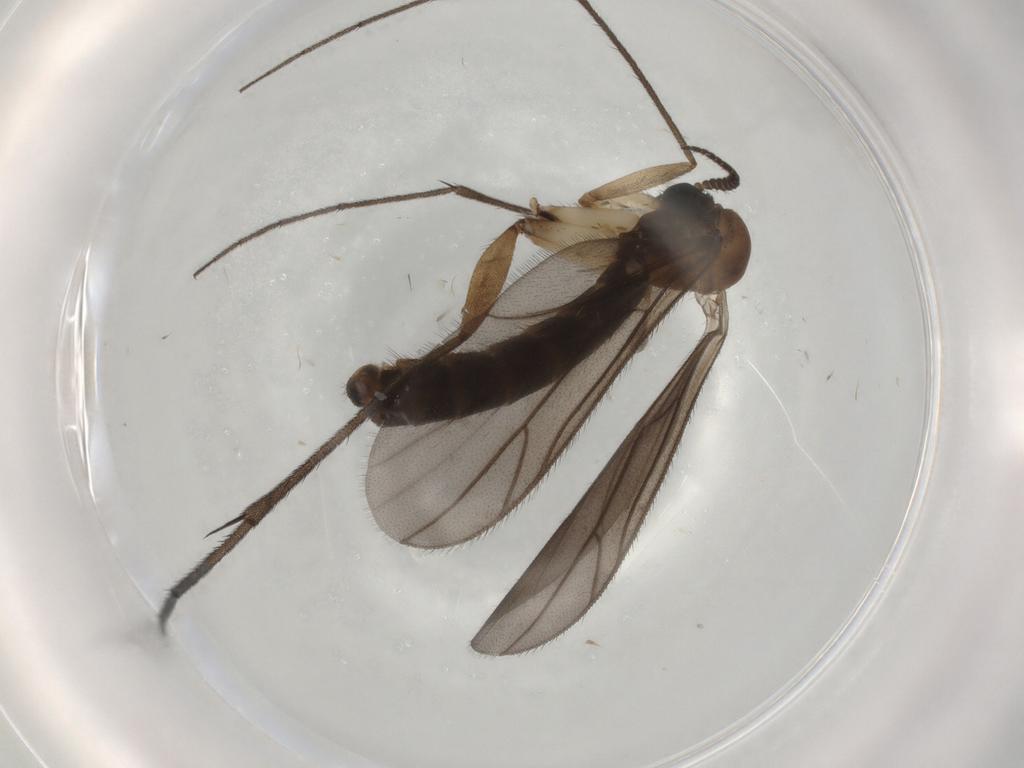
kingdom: Animalia
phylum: Arthropoda
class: Insecta
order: Diptera
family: Ditomyiidae
